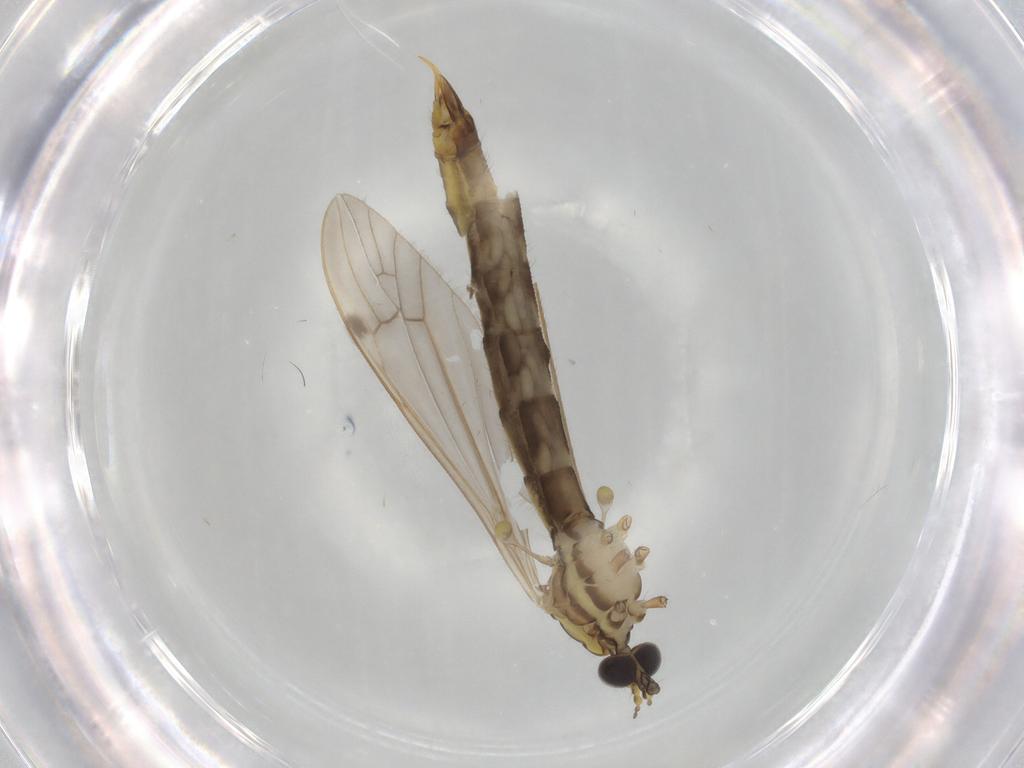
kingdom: Animalia
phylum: Arthropoda
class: Insecta
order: Diptera
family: Ceratopogonidae
